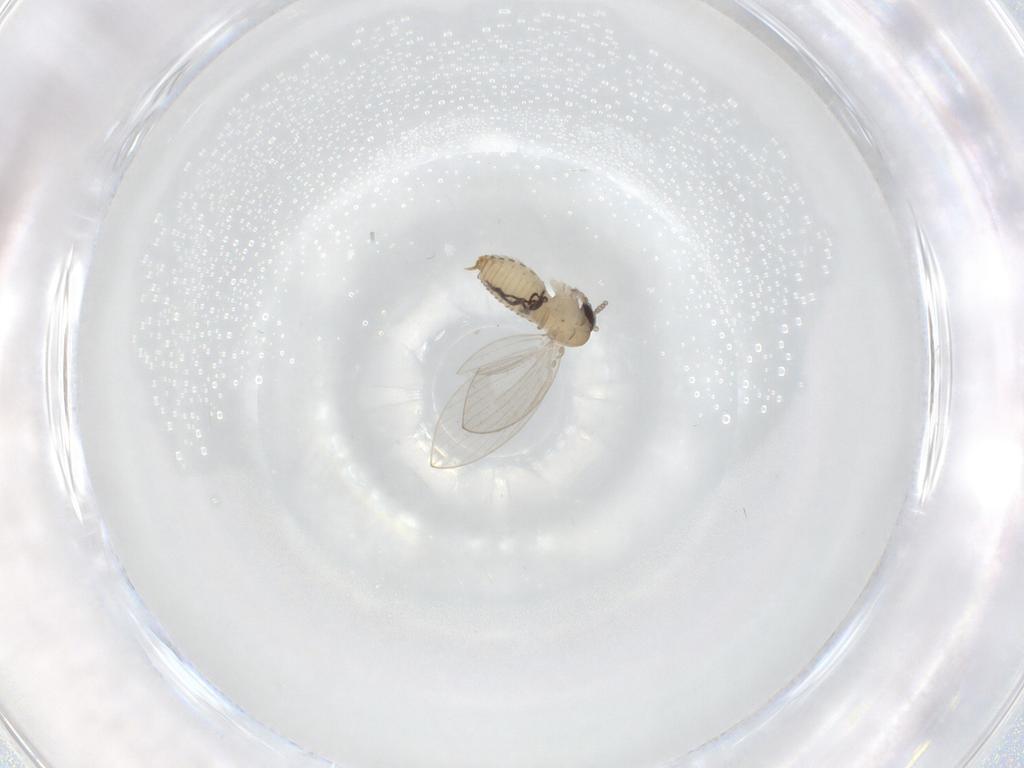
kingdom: Animalia
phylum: Arthropoda
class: Insecta
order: Diptera
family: Psychodidae
